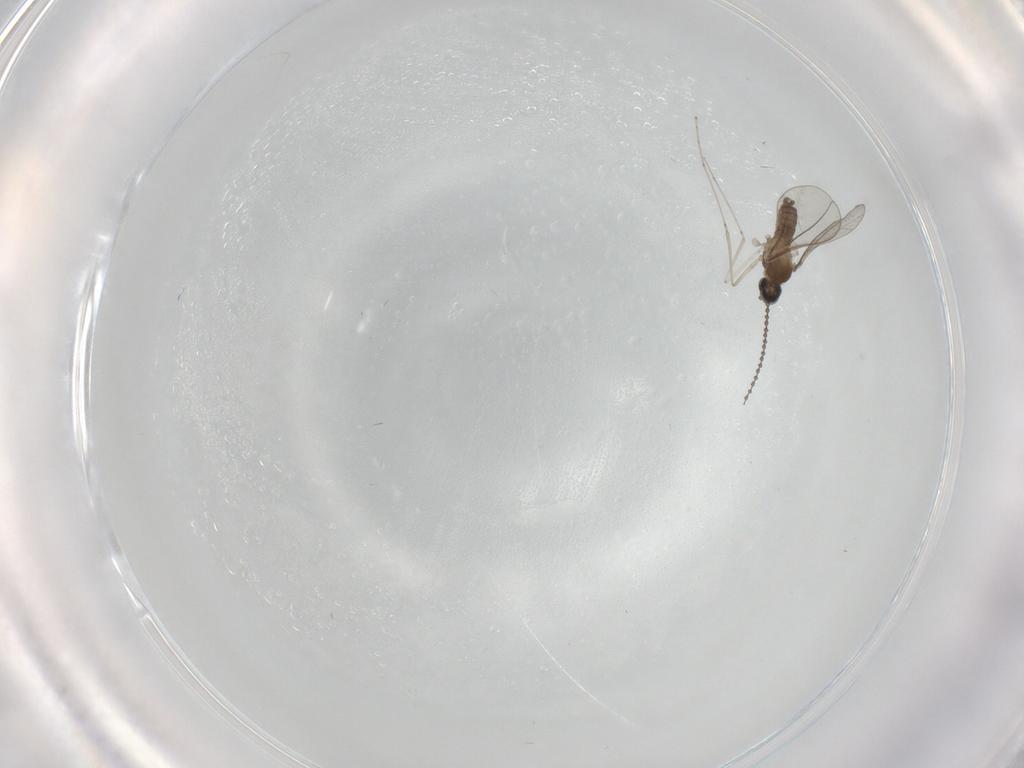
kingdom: Animalia
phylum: Arthropoda
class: Insecta
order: Diptera
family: Cecidomyiidae
